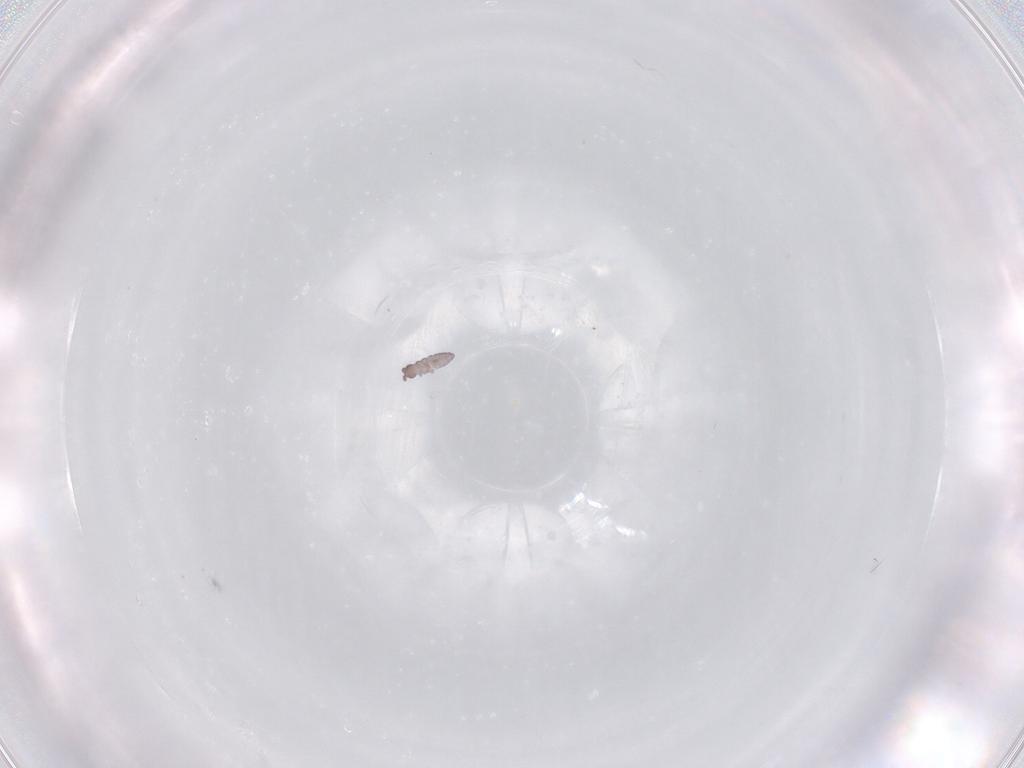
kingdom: Animalia
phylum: Arthropoda
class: Collembola
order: Poduromorpha
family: Hypogastruridae
